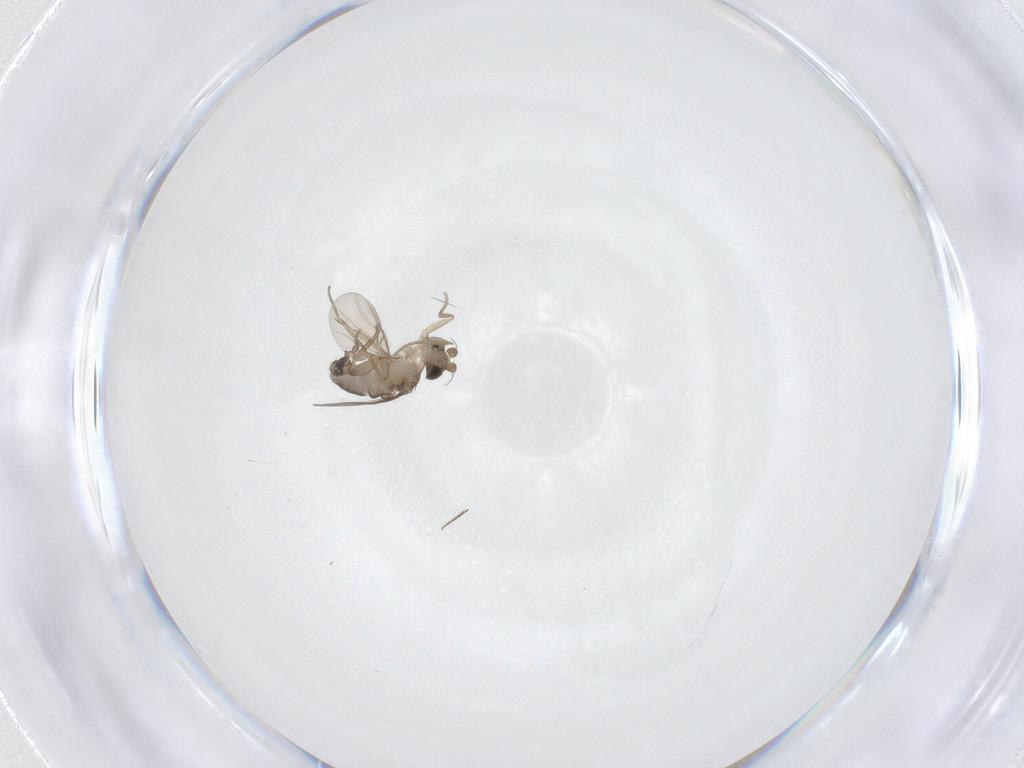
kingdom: Animalia
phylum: Arthropoda
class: Insecta
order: Diptera
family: Phoridae
